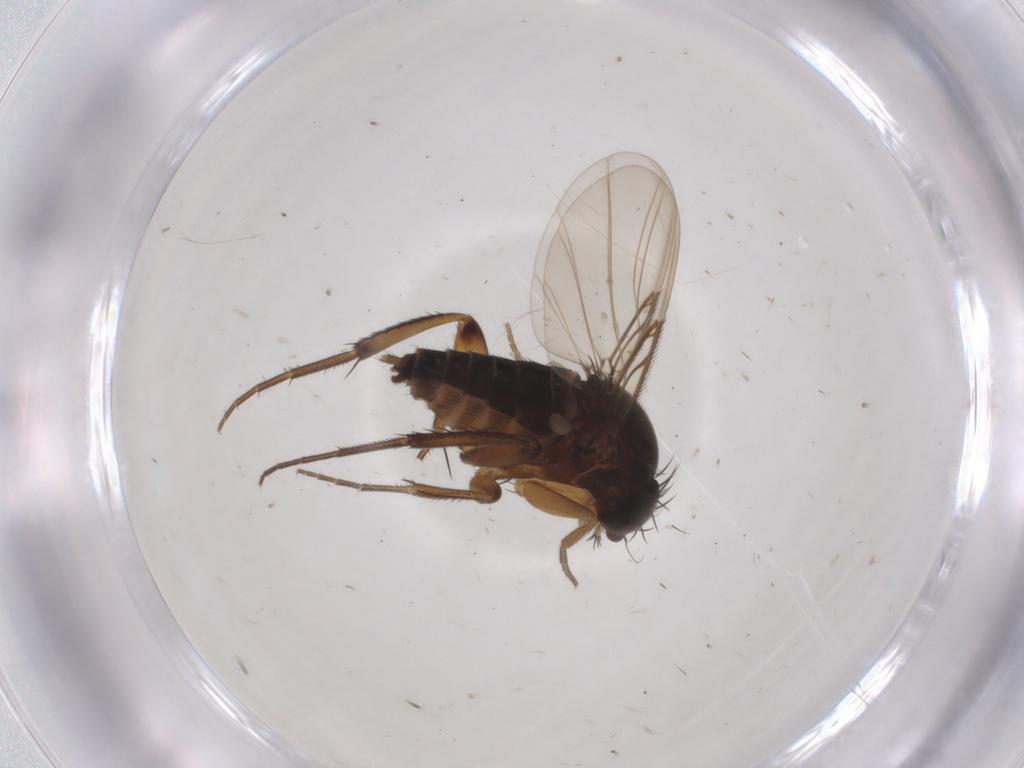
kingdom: Animalia
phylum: Arthropoda
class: Insecta
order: Diptera
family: Phoridae
